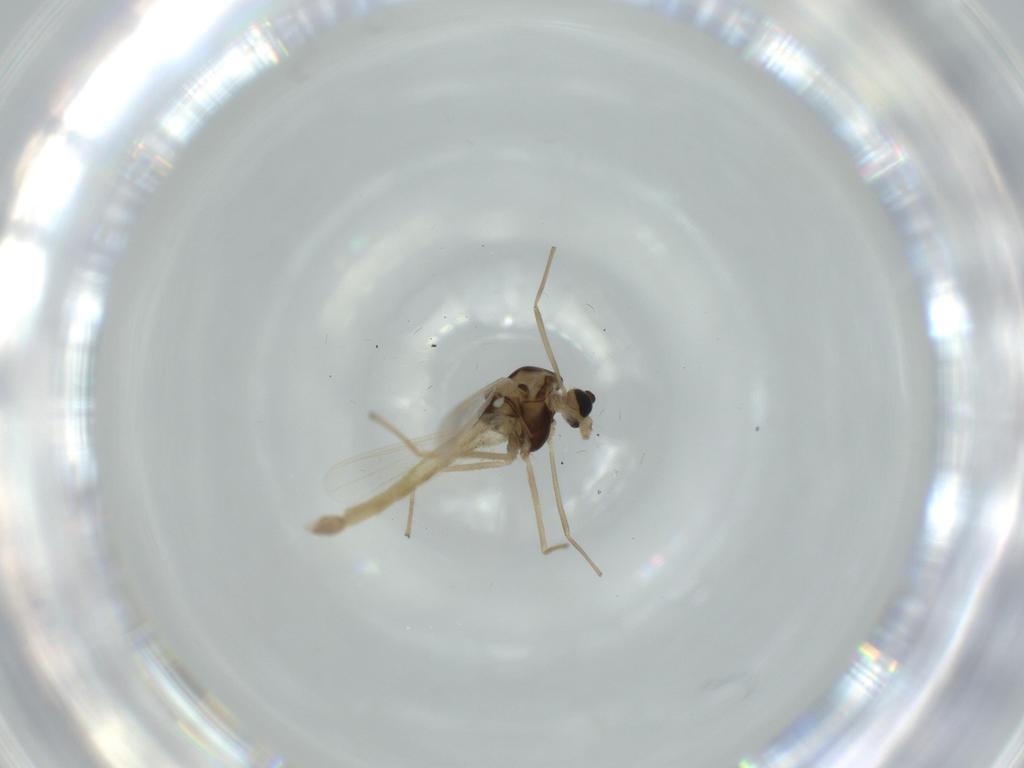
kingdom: Animalia
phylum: Arthropoda
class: Insecta
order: Diptera
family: Chironomidae
